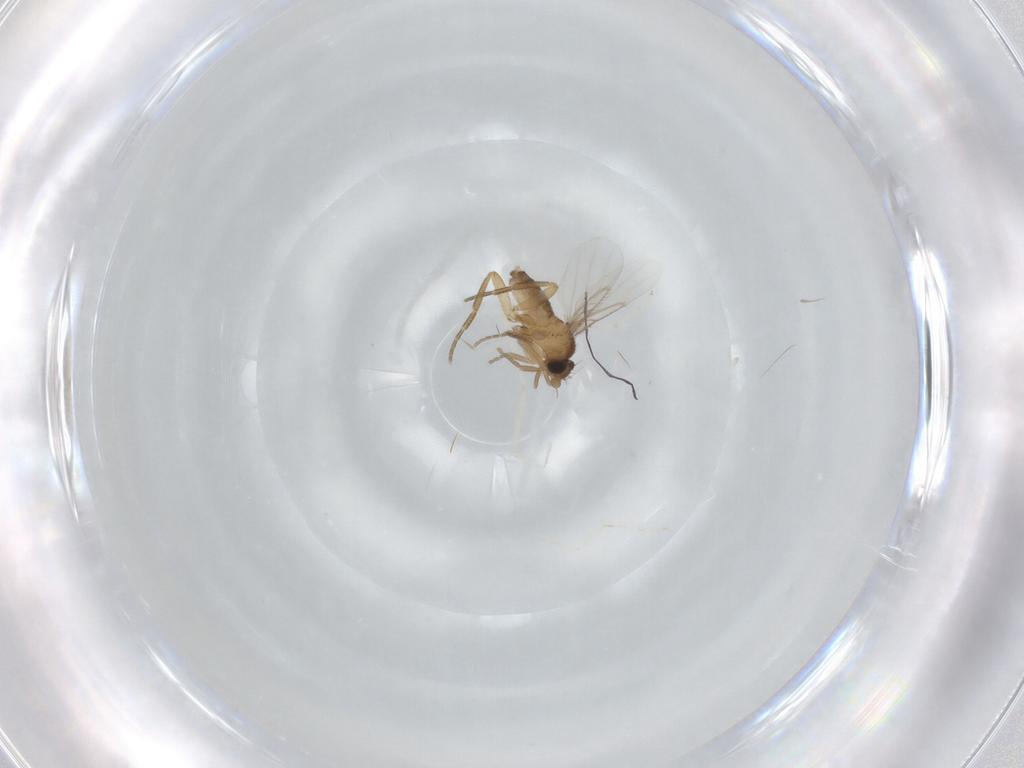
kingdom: Animalia
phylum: Arthropoda
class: Insecta
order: Diptera
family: Cecidomyiidae
